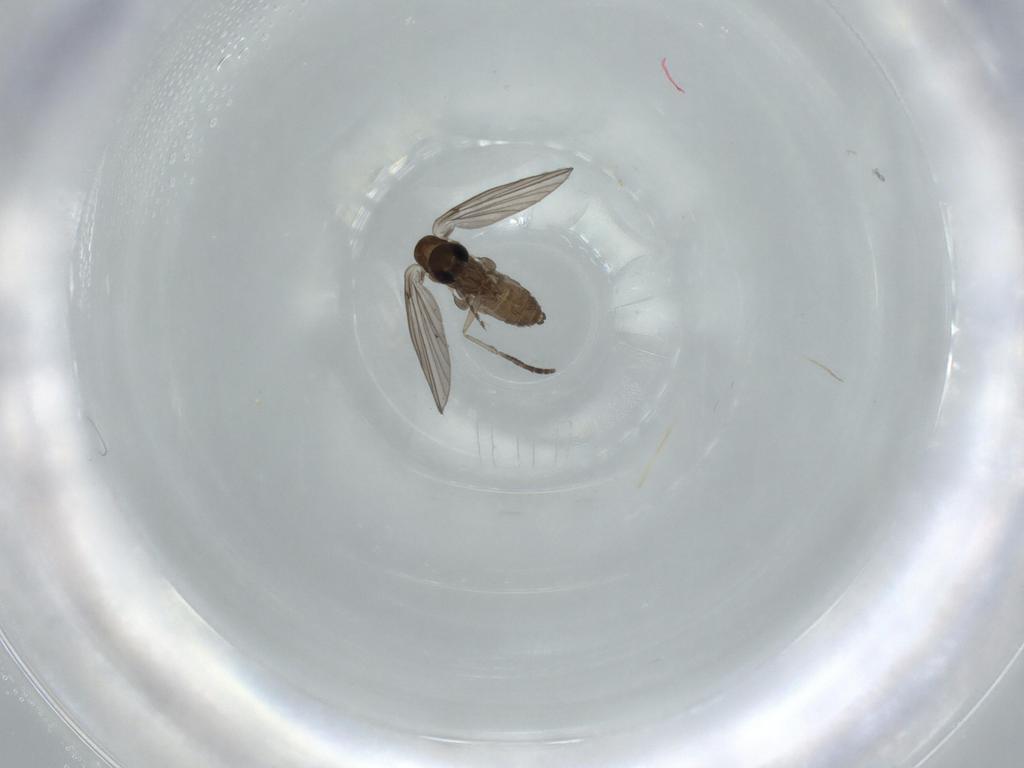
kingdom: Animalia
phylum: Arthropoda
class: Insecta
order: Diptera
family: Psychodidae
